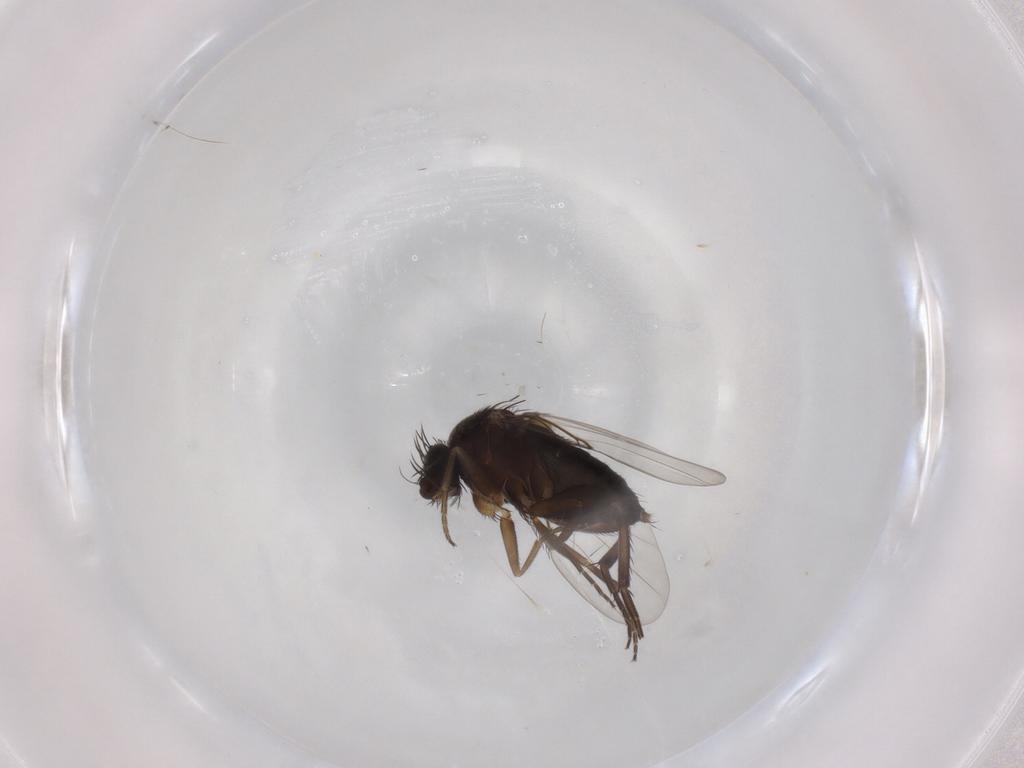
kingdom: Animalia
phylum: Arthropoda
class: Insecta
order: Diptera
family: Phoridae
